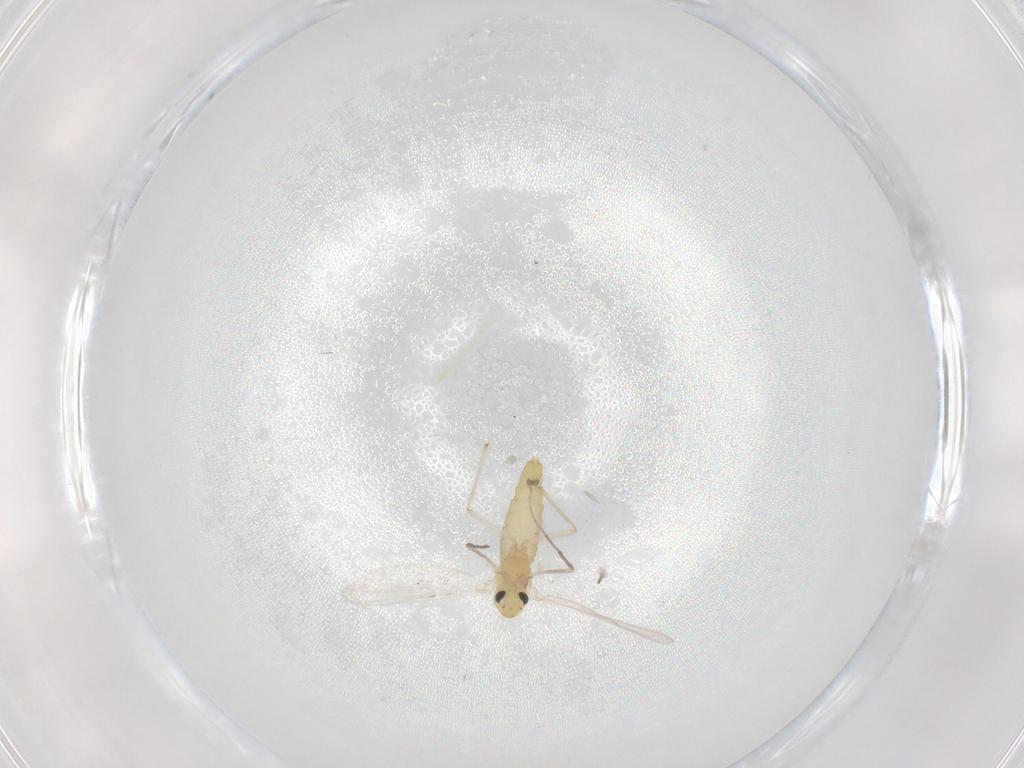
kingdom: Animalia
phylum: Arthropoda
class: Insecta
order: Diptera
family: Chironomidae
